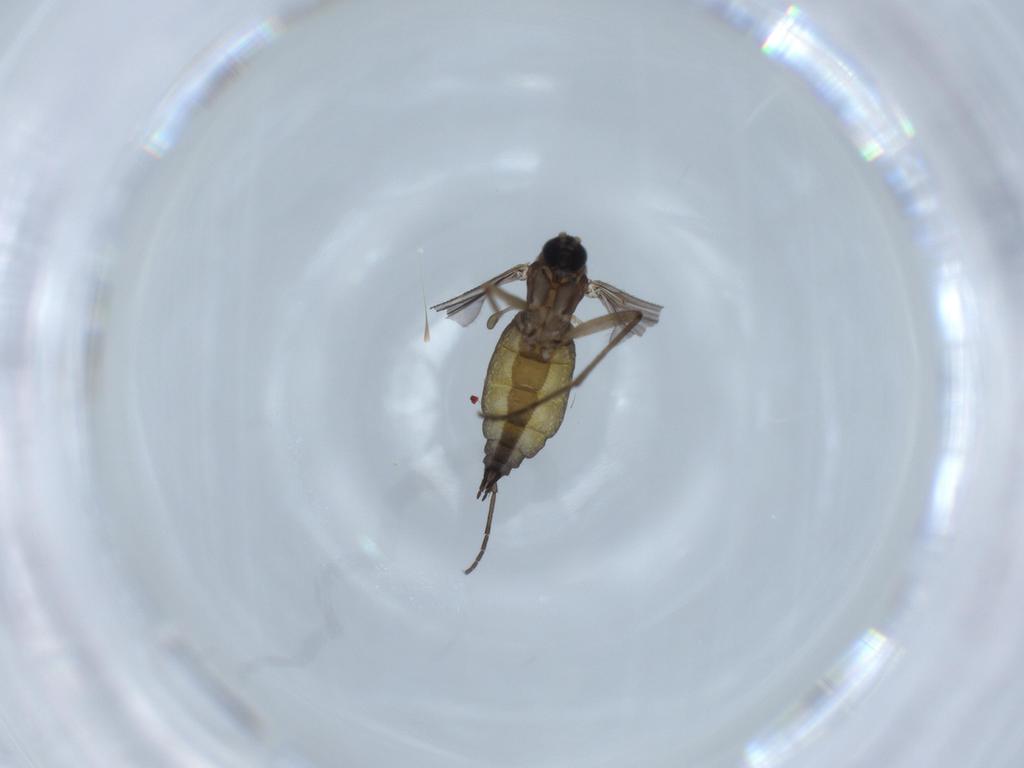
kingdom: Animalia
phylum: Arthropoda
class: Insecta
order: Diptera
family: Sciaridae
